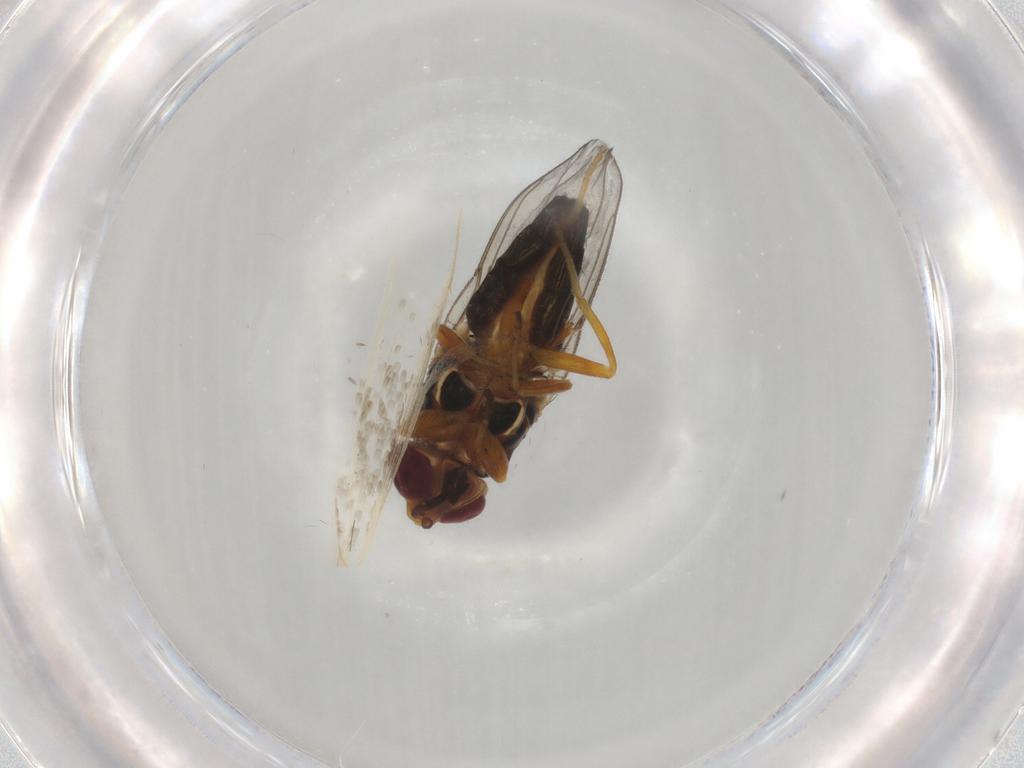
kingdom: Animalia
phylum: Arthropoda
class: Insecta
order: Diptera
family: Chloropidae
